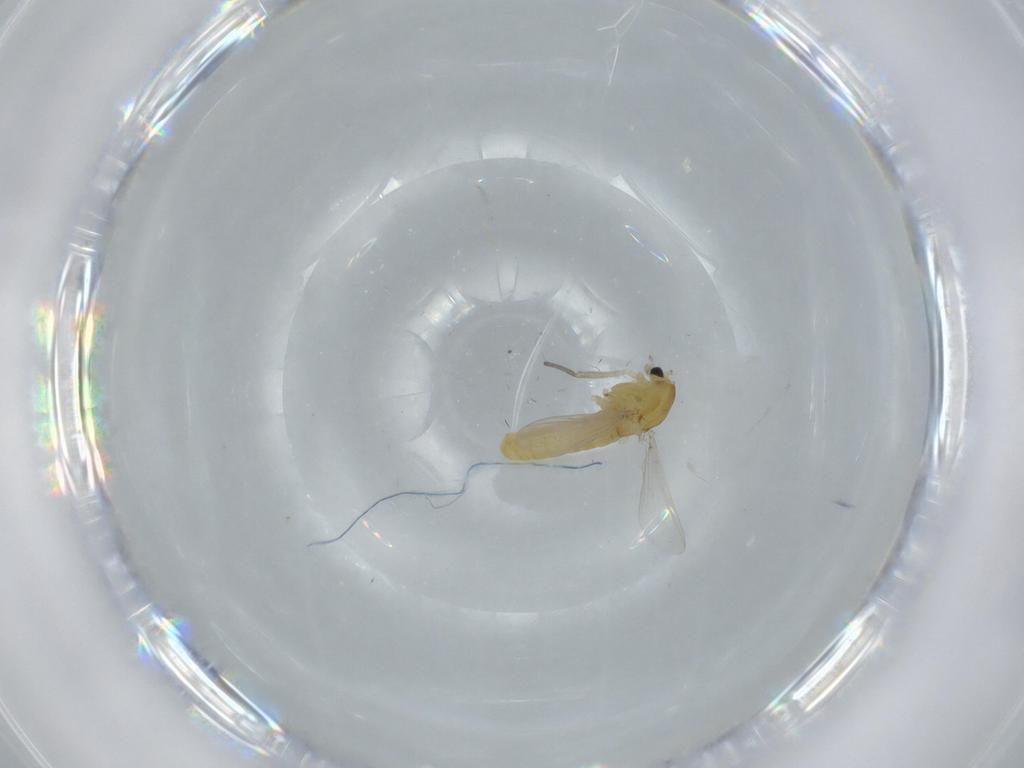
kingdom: Animalia
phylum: Arthropoda
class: Insecta
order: Diptera
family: Chironomidae
